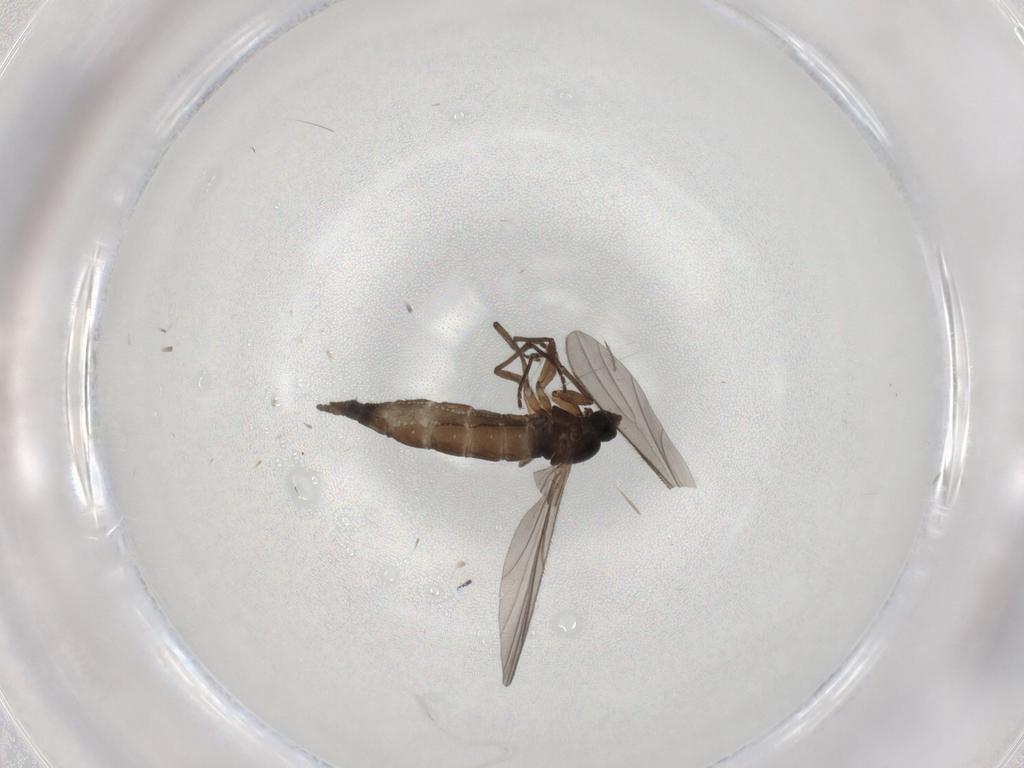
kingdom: Animalia
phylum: Arthropoda
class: Insecta
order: Diptera
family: Sciaridae
